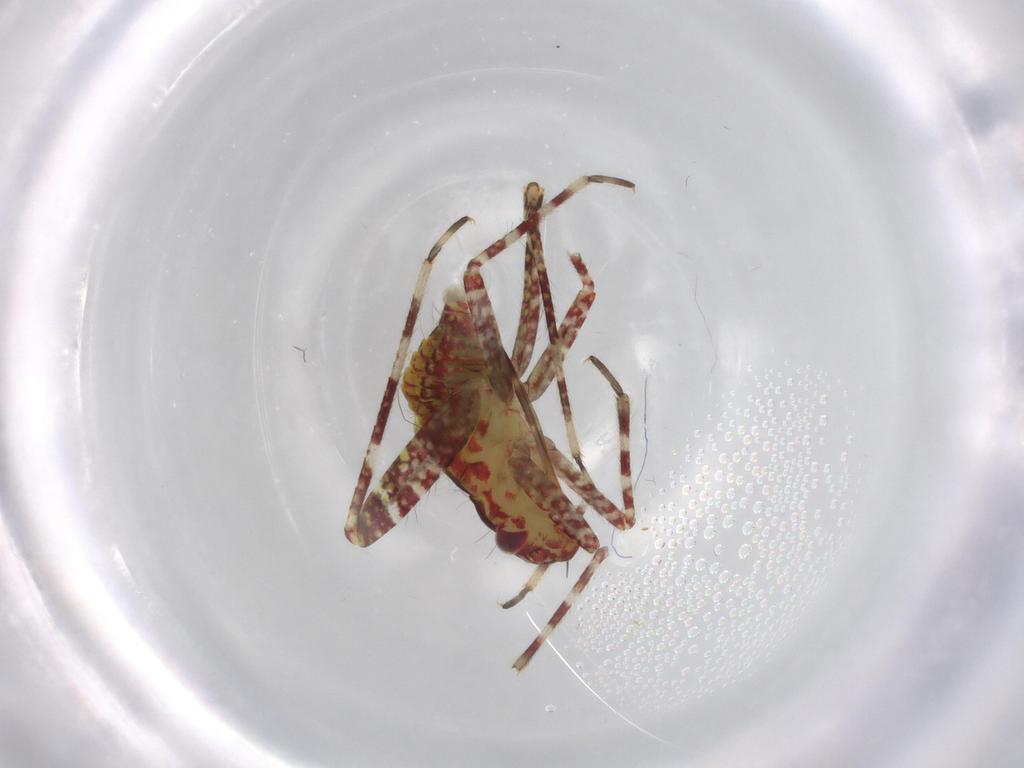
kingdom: Animalia
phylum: Arthropoda
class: Insecta
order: Hemiptera
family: Miridae
